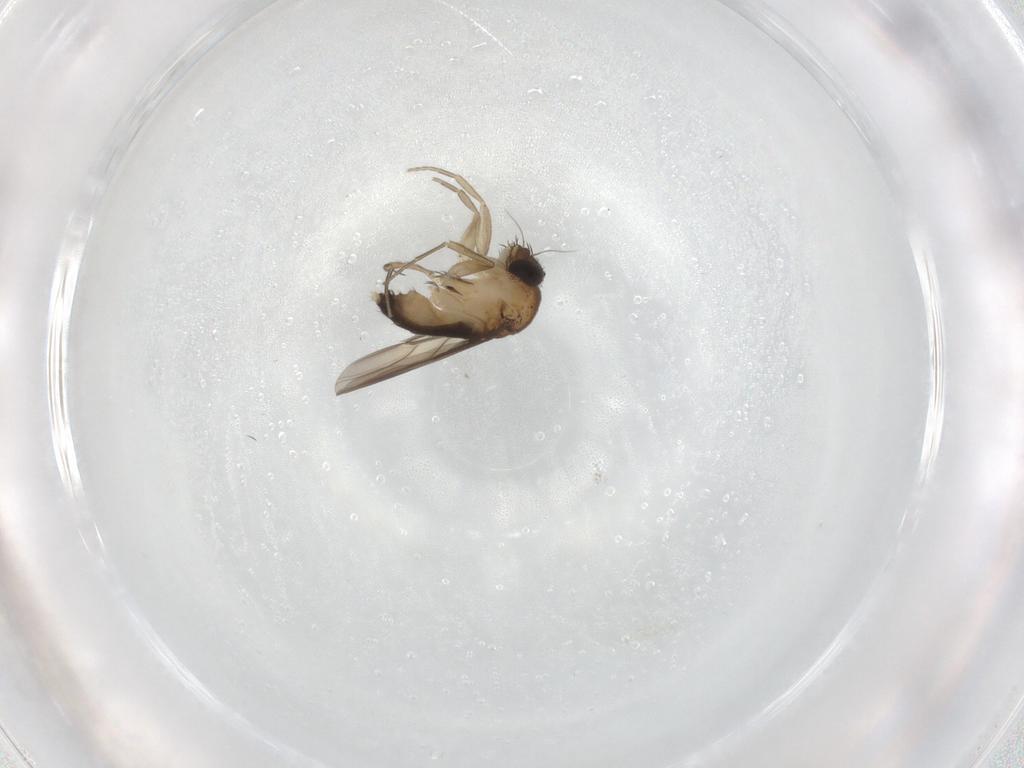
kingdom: Animalia
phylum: Arthropoda
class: Insecta
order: Diptera
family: Phoridae
